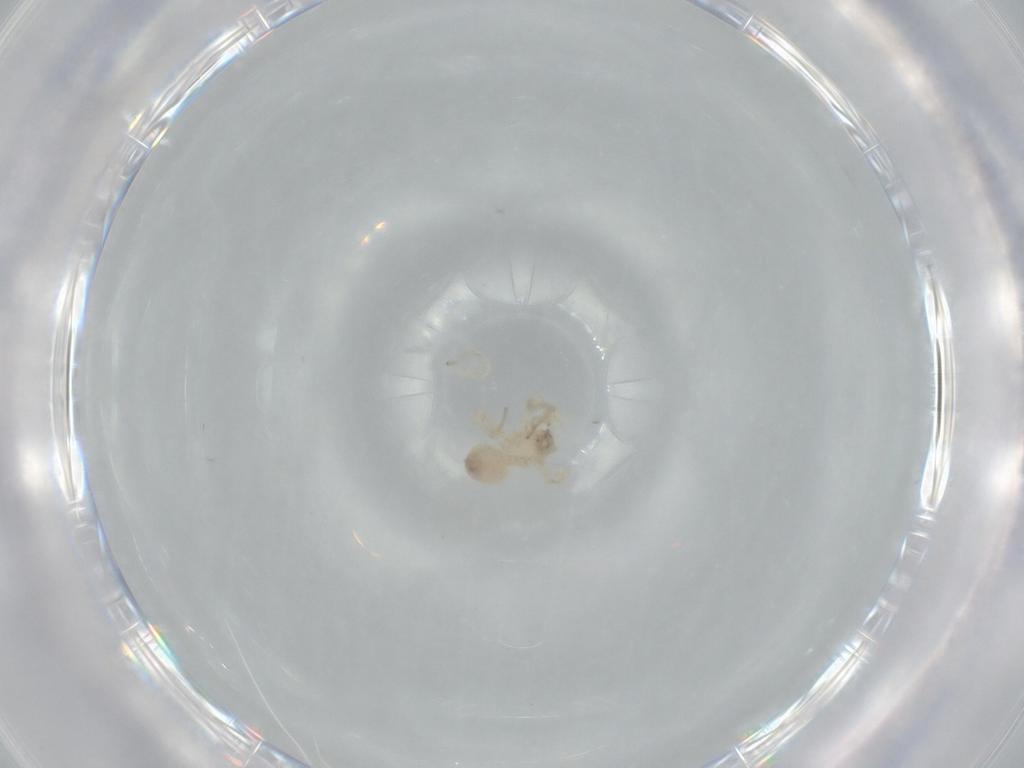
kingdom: Animalia
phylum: Arthropoda
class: Arachnida
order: Araneae
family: Oonopidae
